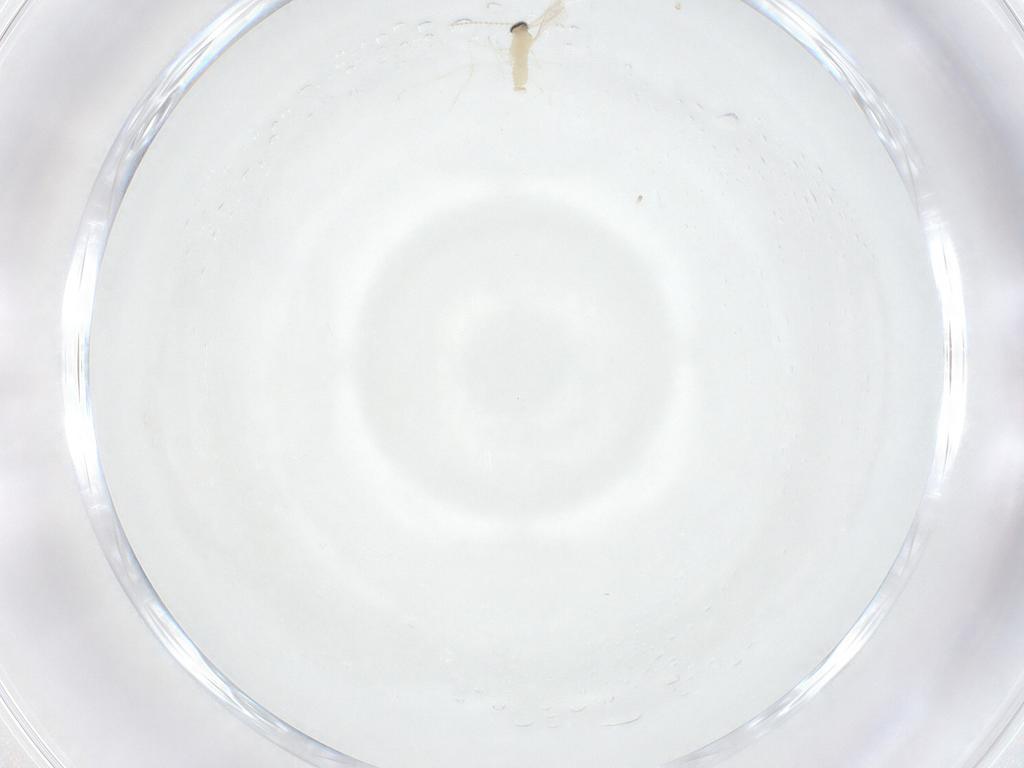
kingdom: Animalia
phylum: Arthropoda
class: Insecta
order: Diptera
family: Cecidomyiidae
